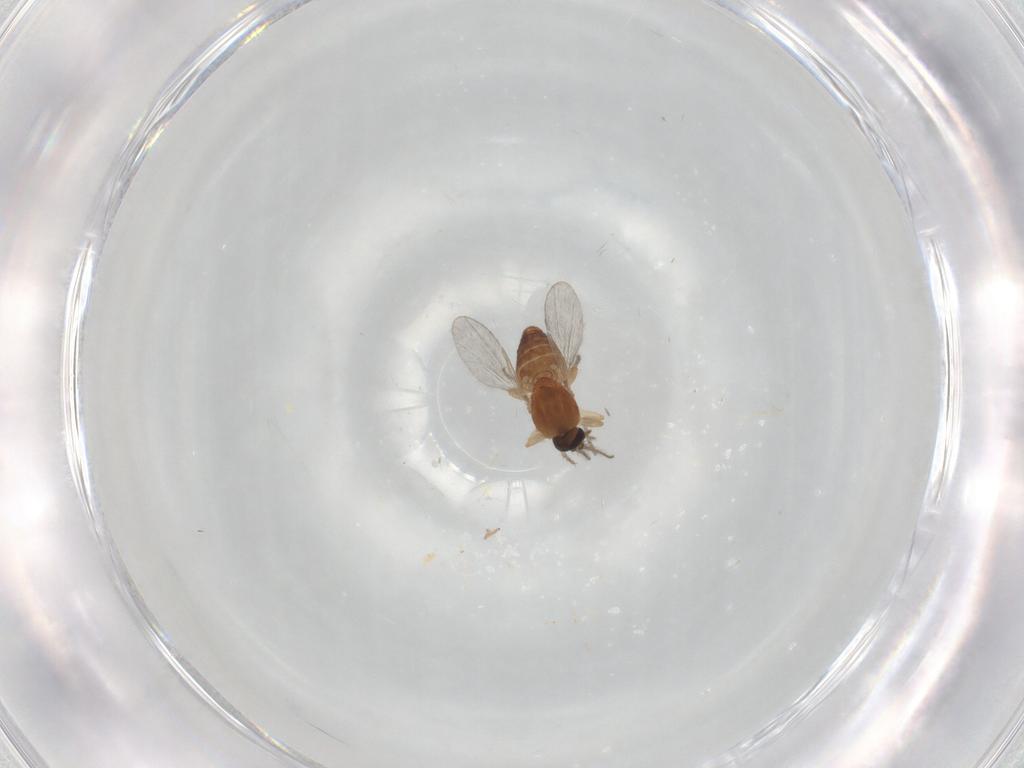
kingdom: Animalia
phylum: Arthropoda
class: Insecta
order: Diptera
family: Ceratopogonidae
